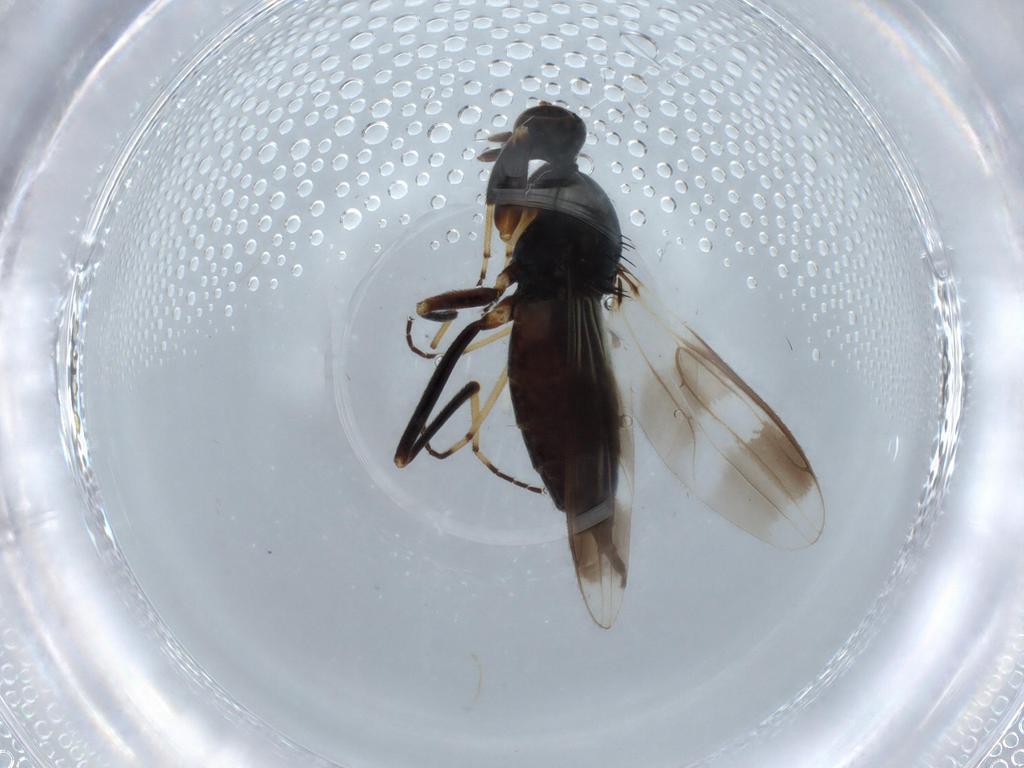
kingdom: Animalia
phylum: Arthropoda
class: Insecta
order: Diptera
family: Hybotidae
